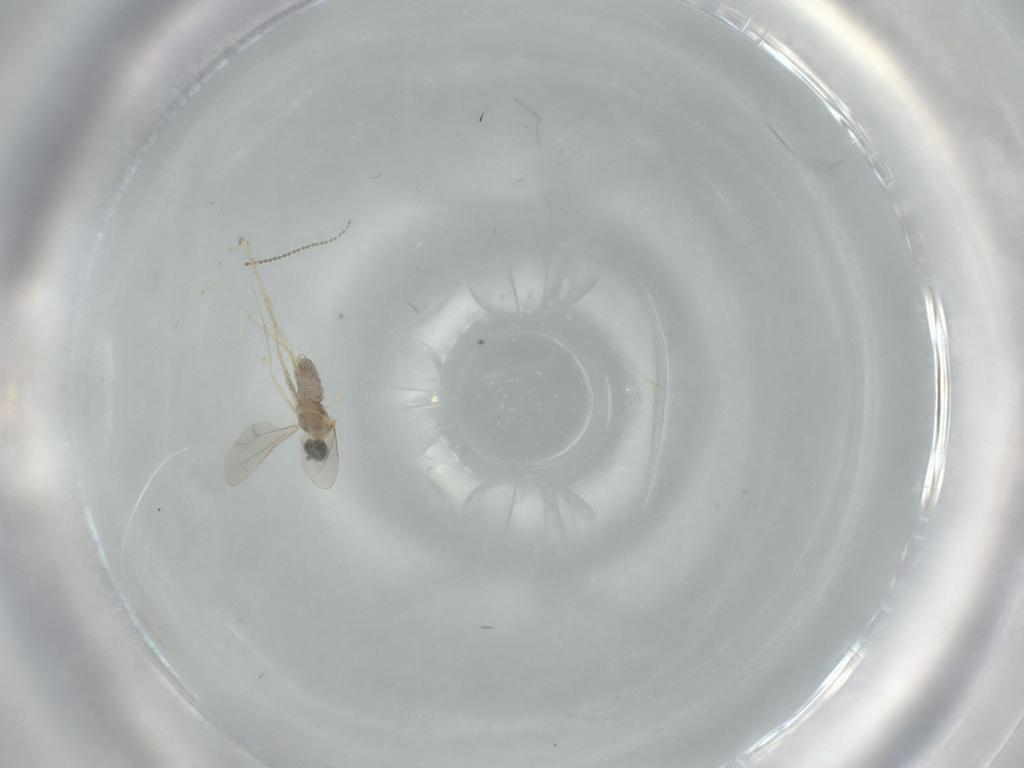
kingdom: Animalia
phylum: Arthropoda
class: Insecta
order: Diptera
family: Cecidomyiidae
